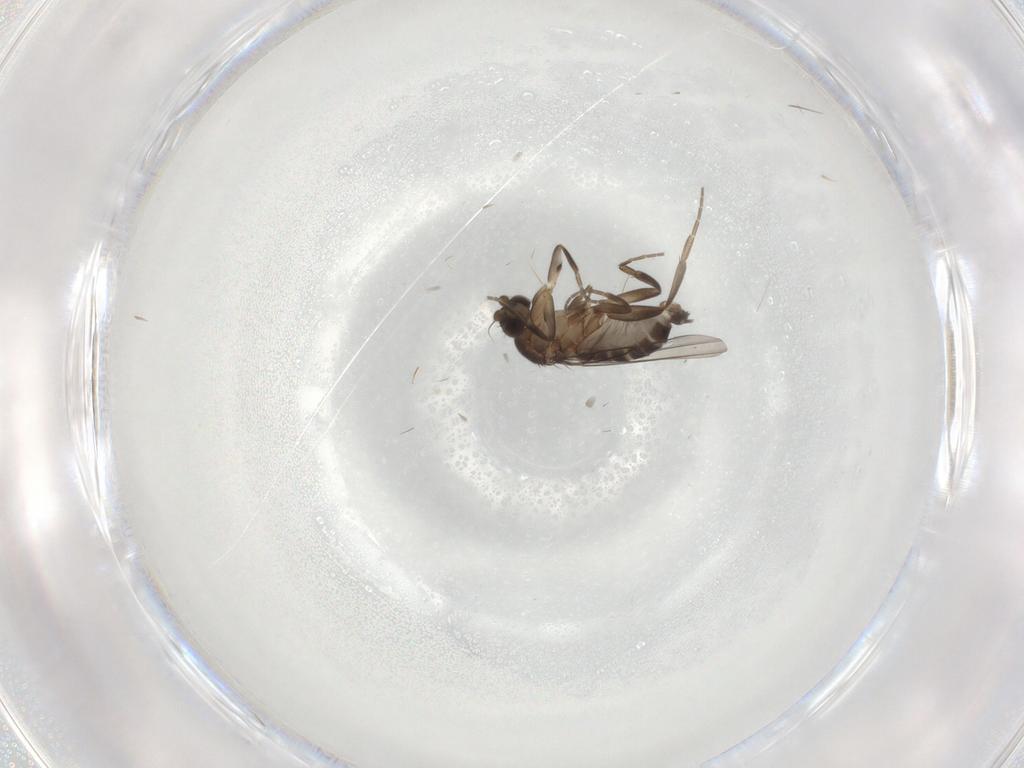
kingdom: Animalia
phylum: Arthropoda
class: Insecta
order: Diptera
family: Phoridae
